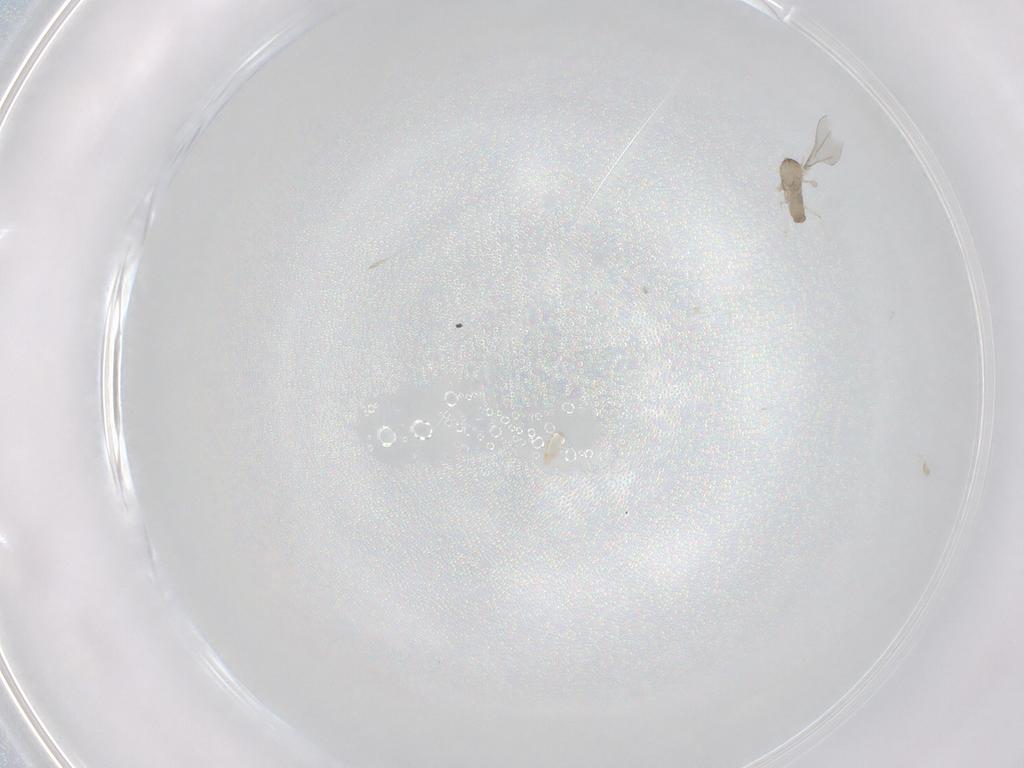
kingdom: Animalia
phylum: Arthropoda
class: Insecta
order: Diptera
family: Cecidomyiidae
